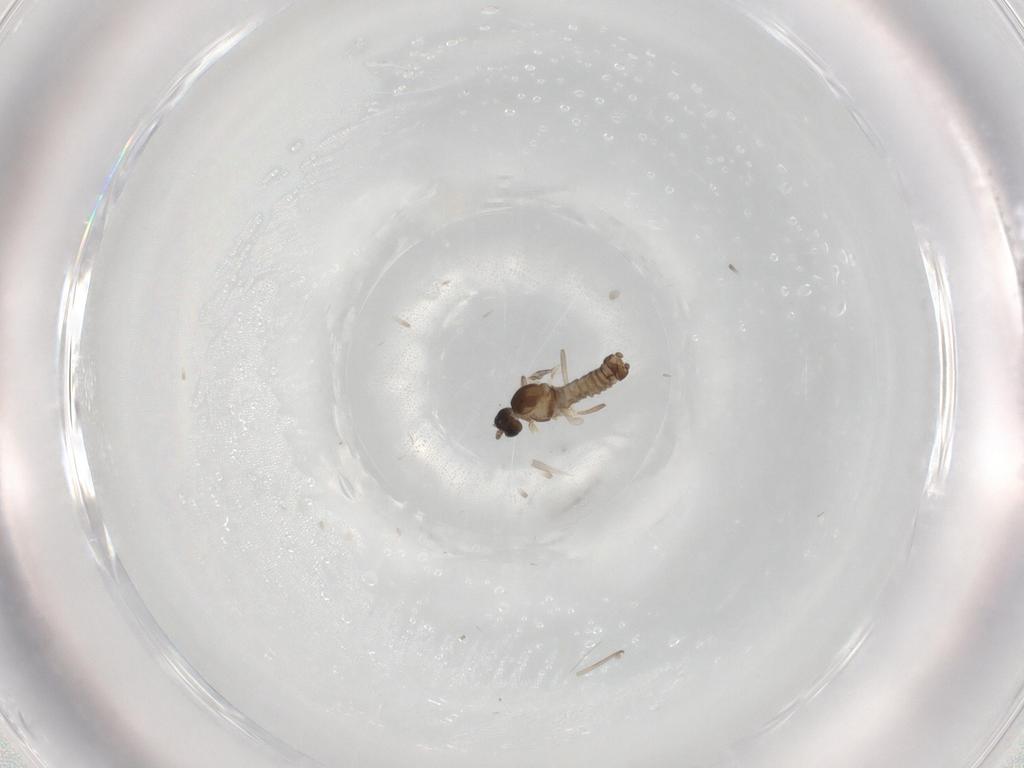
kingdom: Animalia
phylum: Arthropoda
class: Insecta
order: Diptera
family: Cecidomyiidae
